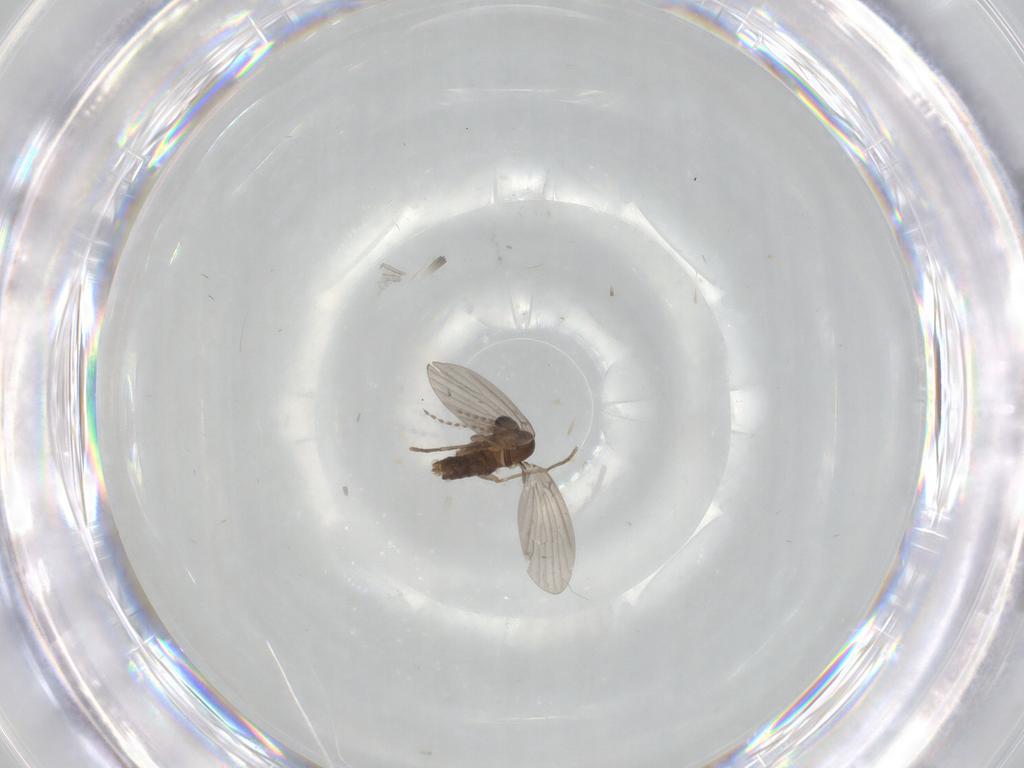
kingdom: Animalia
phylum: Arthropoda
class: Insecta
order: Diptera
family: Cecidomyiidae
